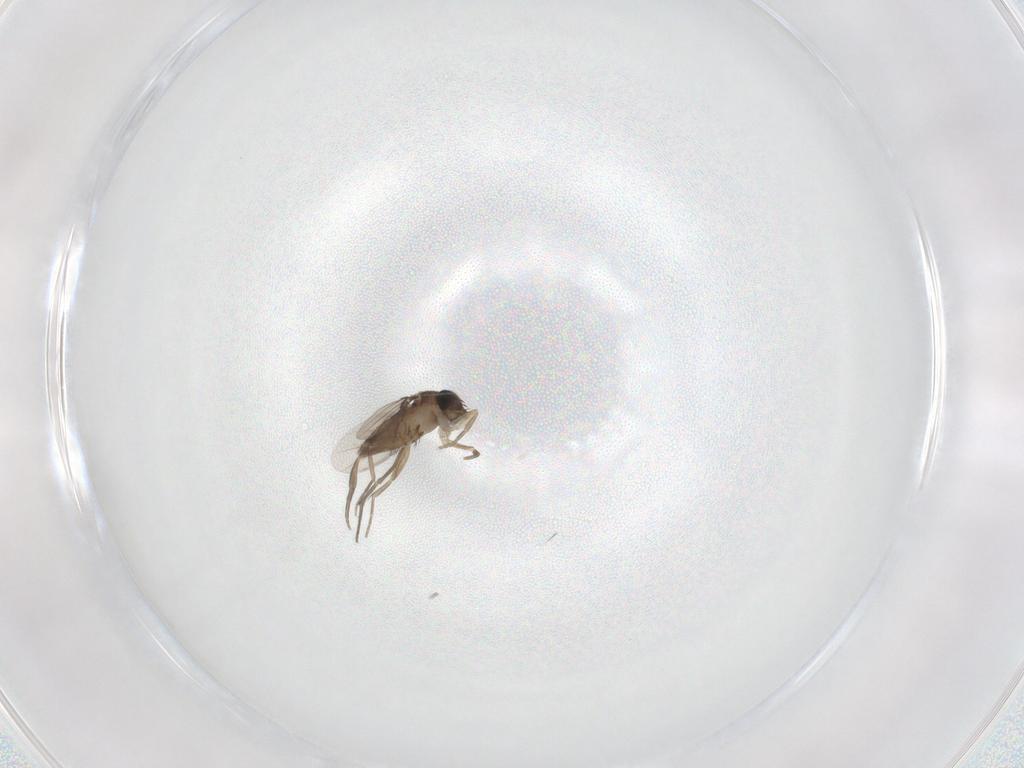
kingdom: Animalia
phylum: Arthropoda
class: Insecta
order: Diptera
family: Phoridae
